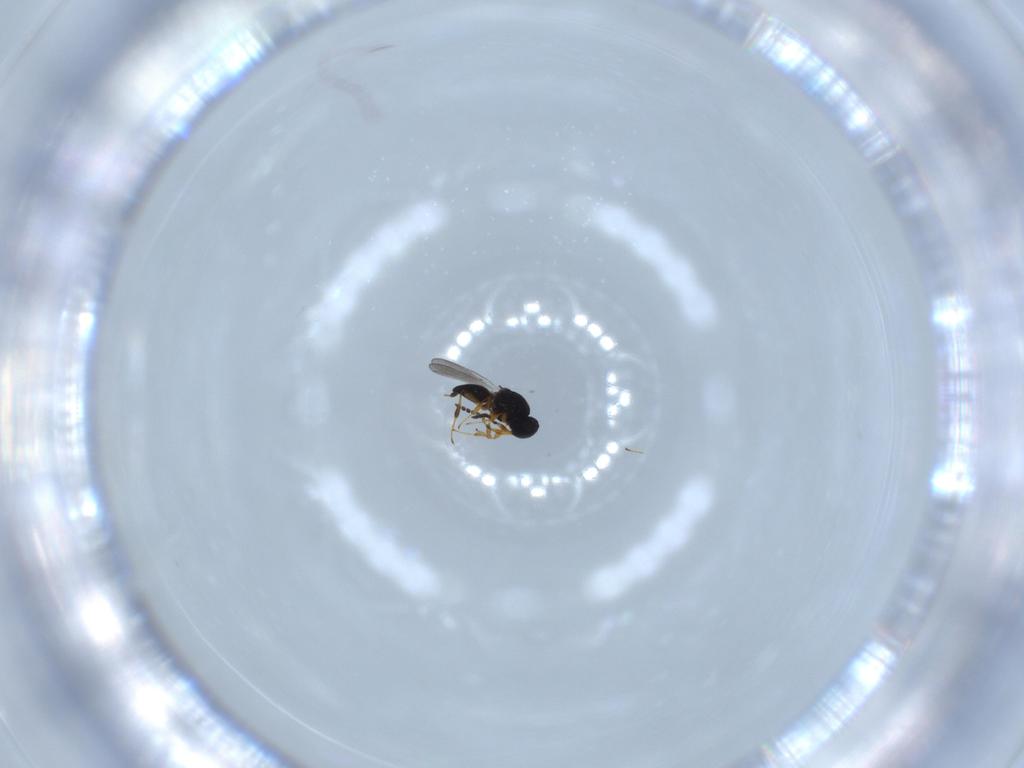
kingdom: Animalia
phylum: Arthropoda
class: Insecta
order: Hymenoptera
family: Platygastridae
